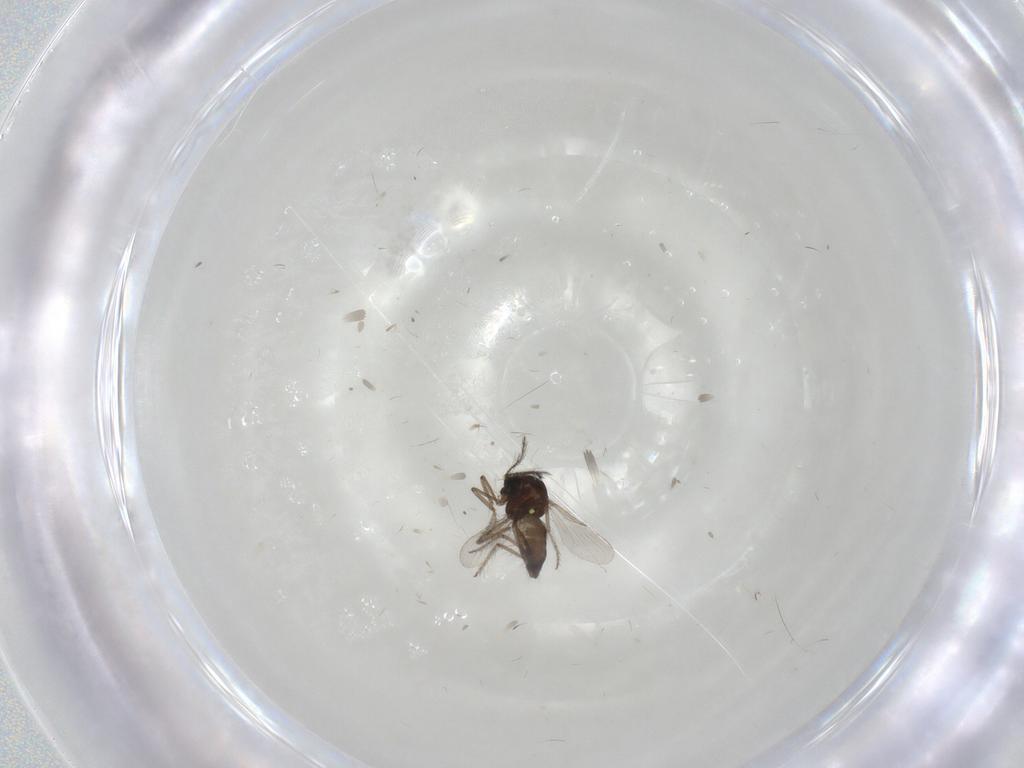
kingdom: Animalia
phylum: Arthropoda
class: Insecta
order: Diptera
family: Ceratopogonidae
